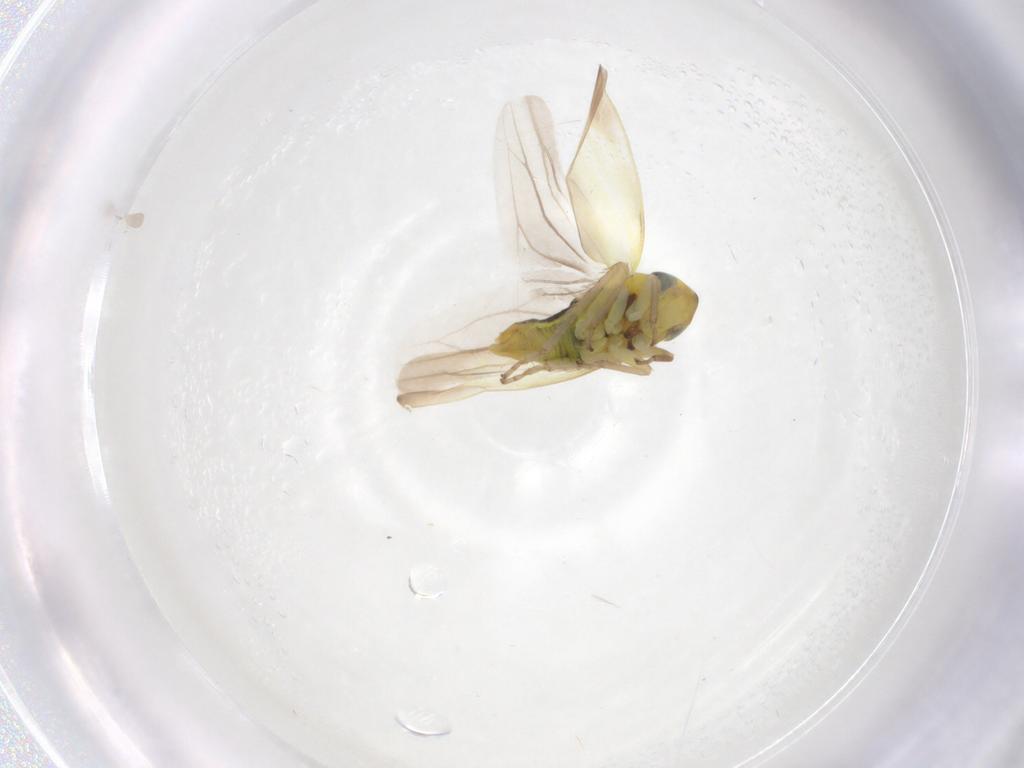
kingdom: Animalia
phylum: Arthropoda
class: Insecta
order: Hemiptera
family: Cicadellidae
